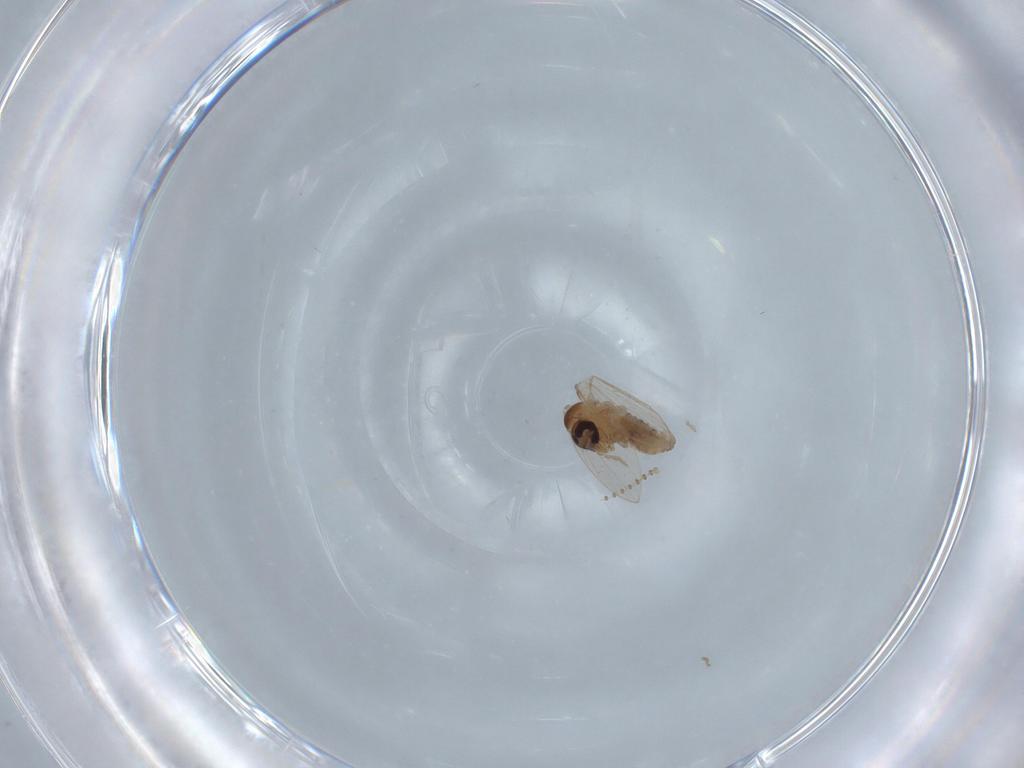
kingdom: Animalia
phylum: Arthropoda
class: Insecta
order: Diptera
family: Psychodidae
